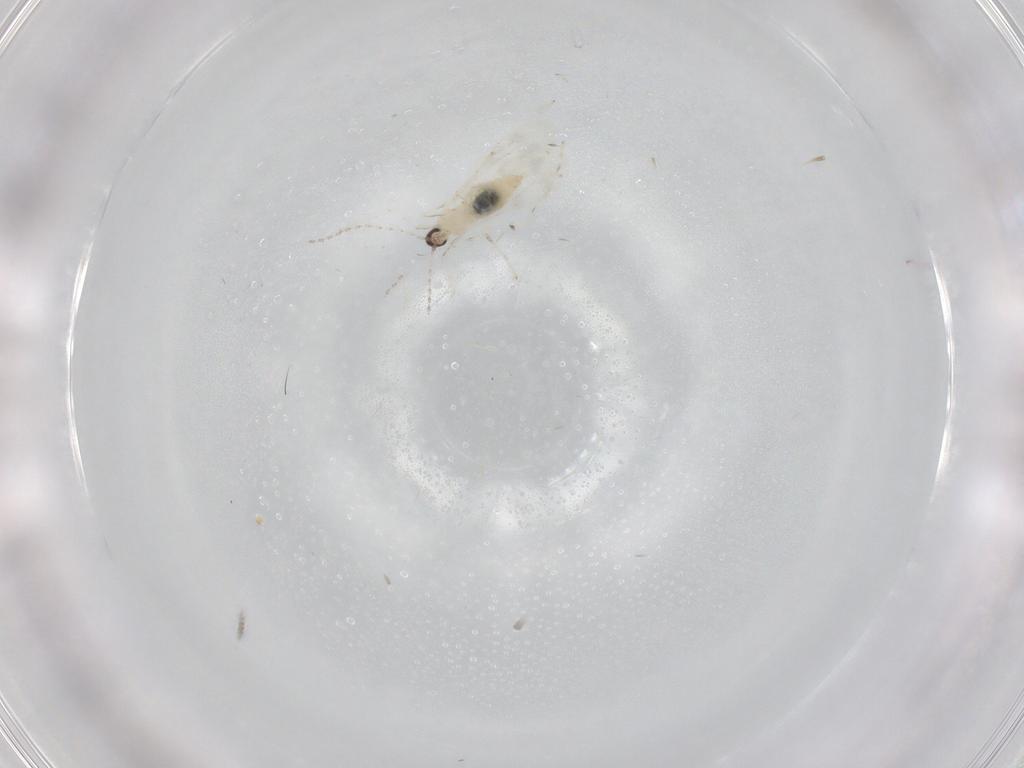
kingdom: Animalia
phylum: Arthropoda
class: Insecta
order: Diptera
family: Cecidomyiidae
